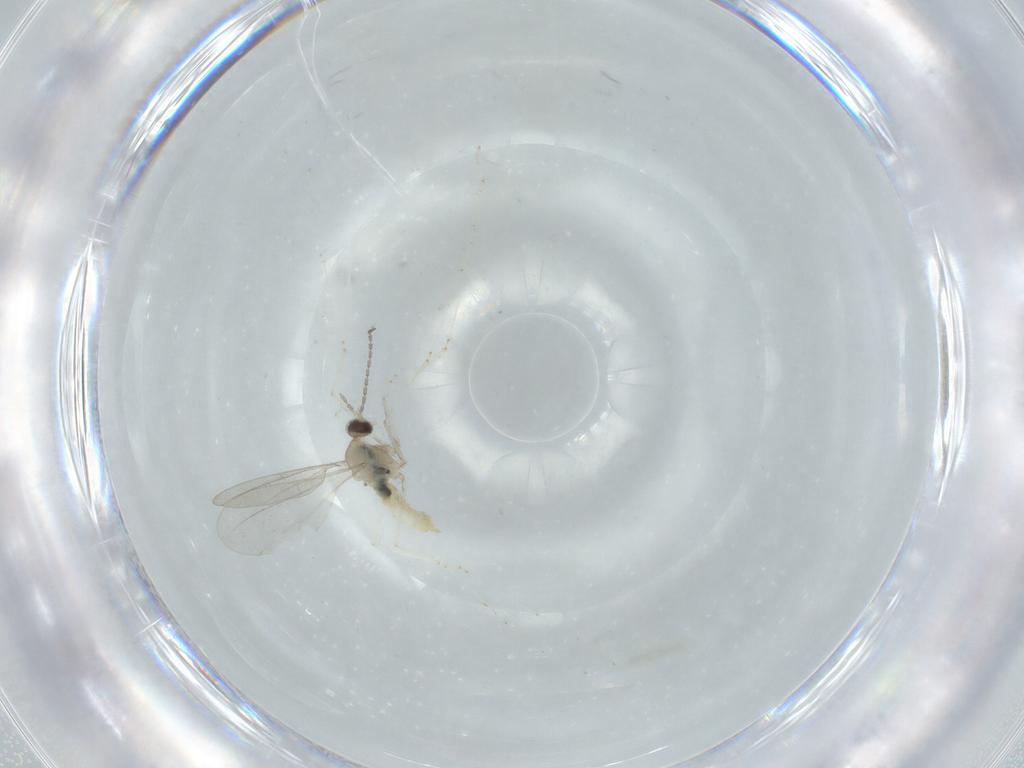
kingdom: Animalia
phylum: Arthropoda
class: Insecta
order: Diptera
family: Cecidomyiidae
